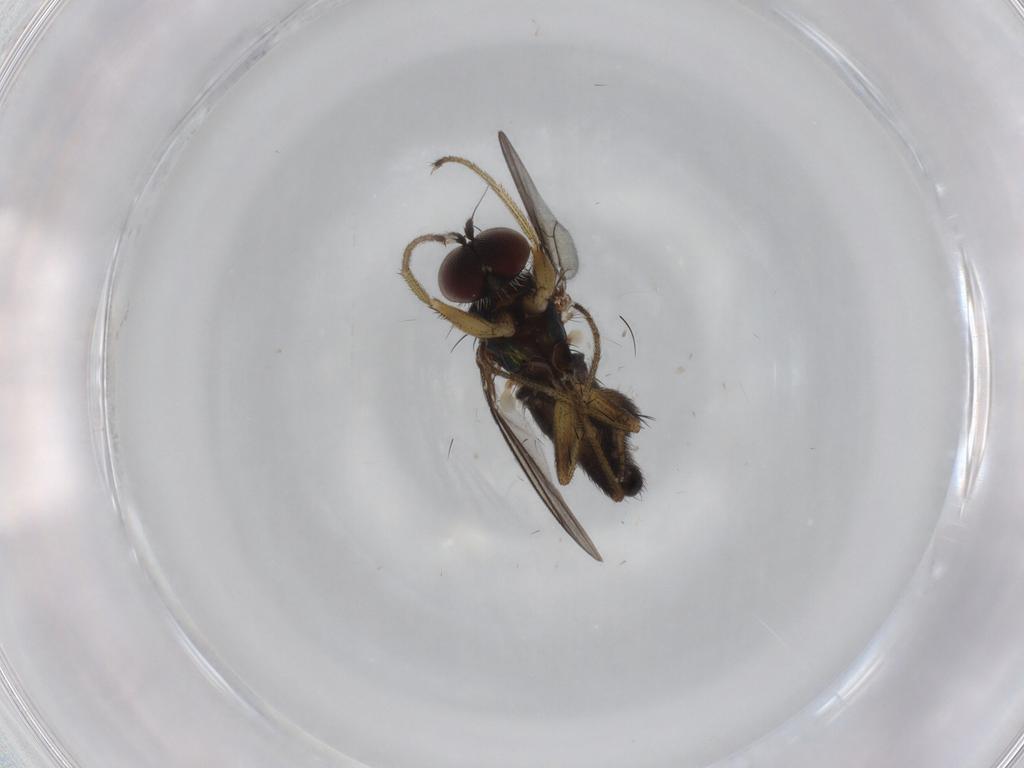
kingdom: Animalia
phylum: Arthropoda
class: Insecta
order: Diptera
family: Dolichopodidae
